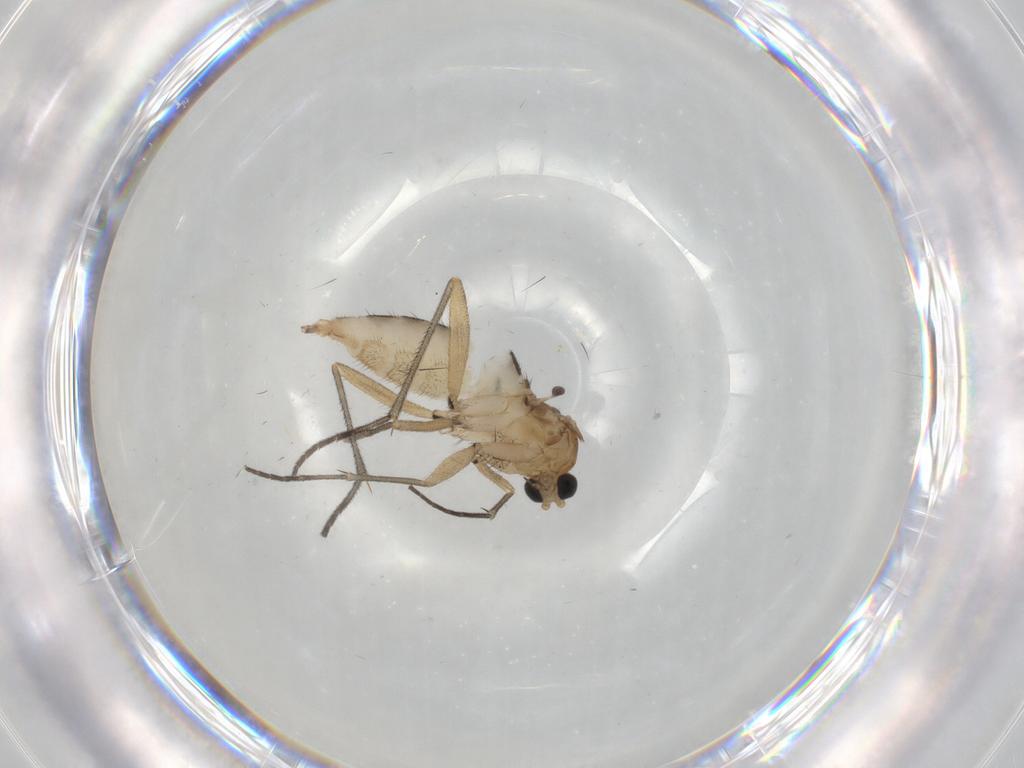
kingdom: Animalia
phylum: Arthropoda
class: Insecta
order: Diptera
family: Sciaridae
